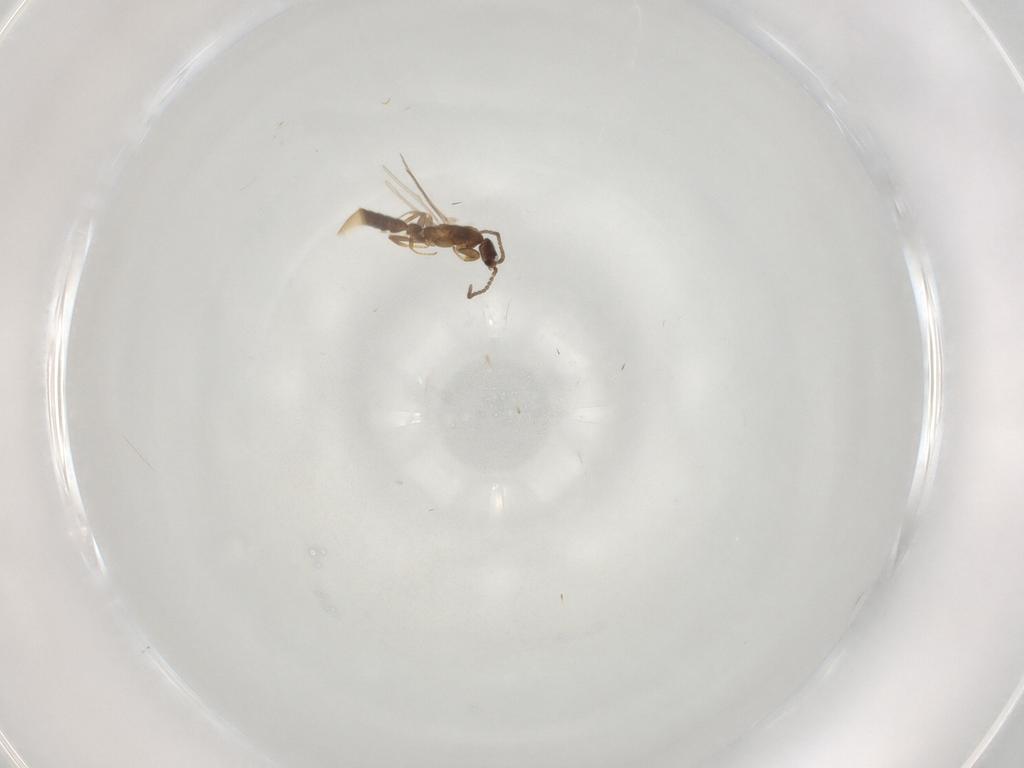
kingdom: Animalia
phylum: Arthropoda
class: Insecta
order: Hymenoptera
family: Formicidae
